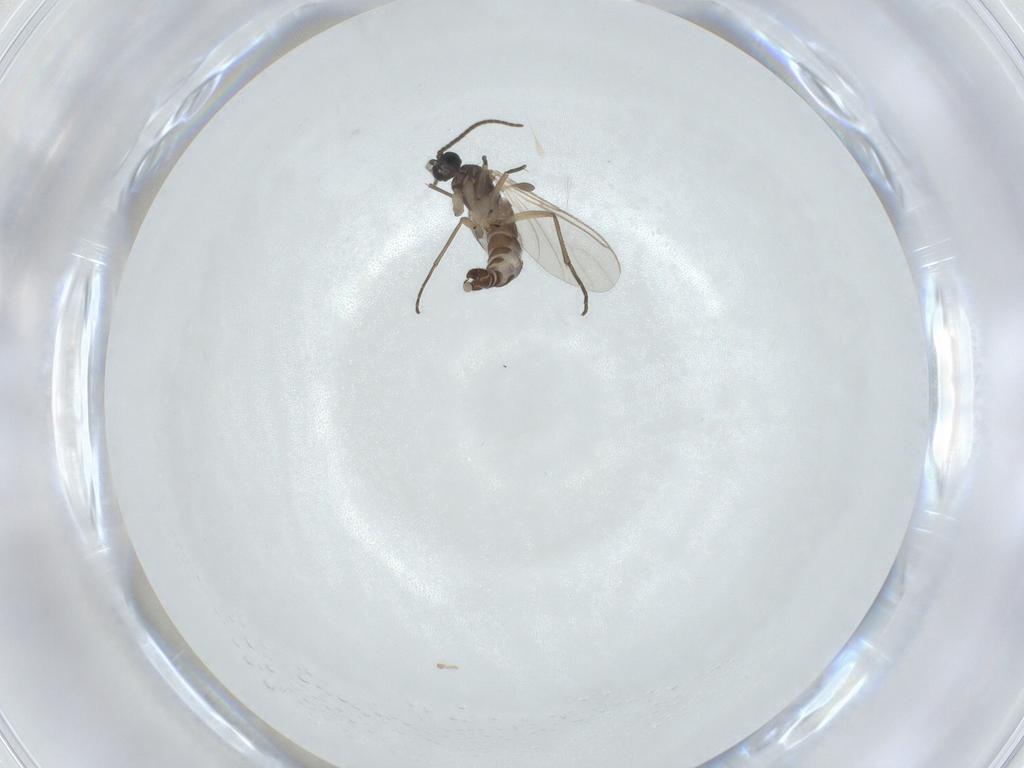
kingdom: Animalia
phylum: Arthropoda
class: Insecta
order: Diptera
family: Sciaridae
